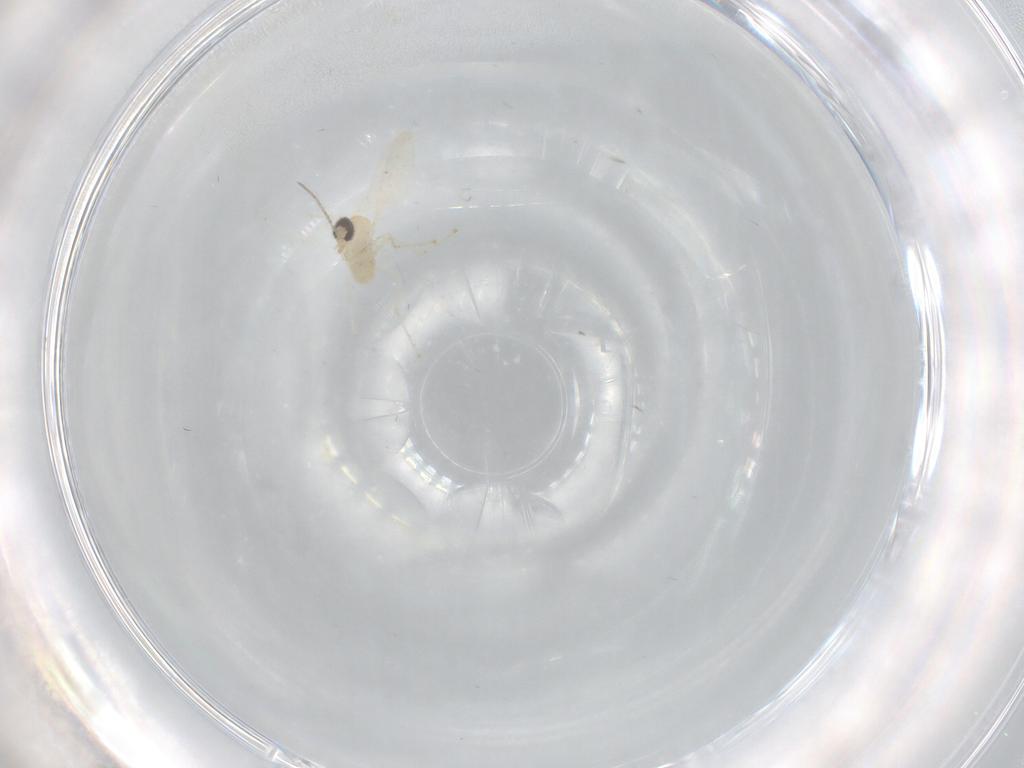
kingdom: Animalia
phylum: Arthropoda
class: Insecta
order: Diptera
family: Cecidomyiidae
